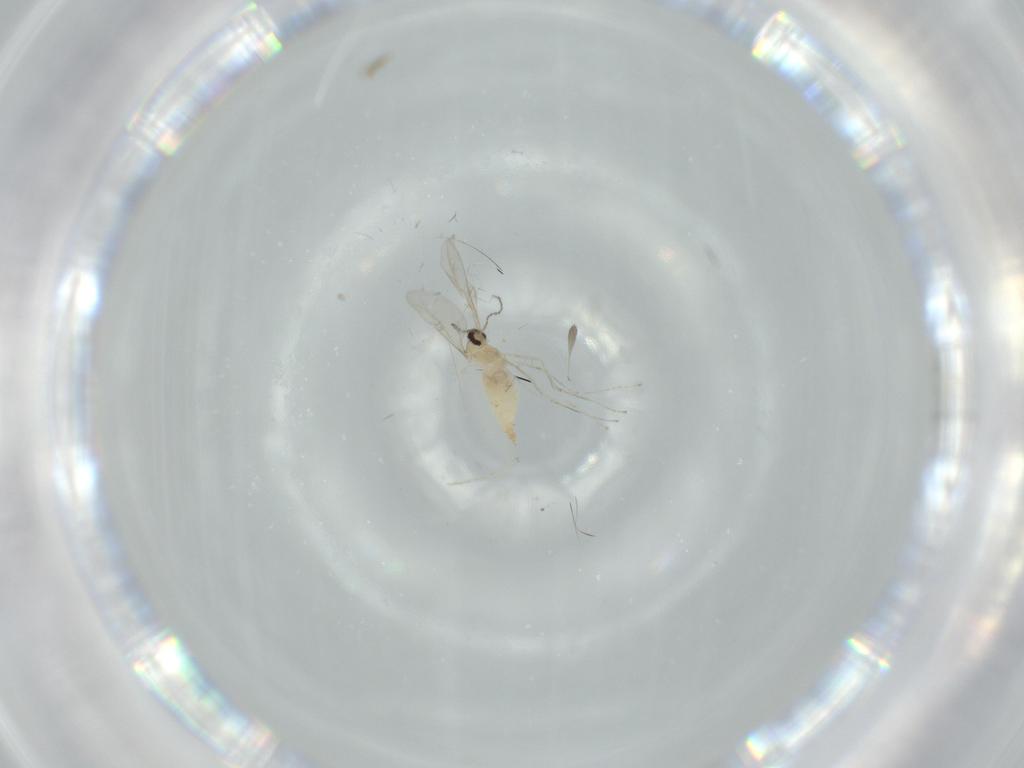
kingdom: Animalia
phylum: Arthropoda
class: Insecta
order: Diptera
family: Cecidomyiidae
